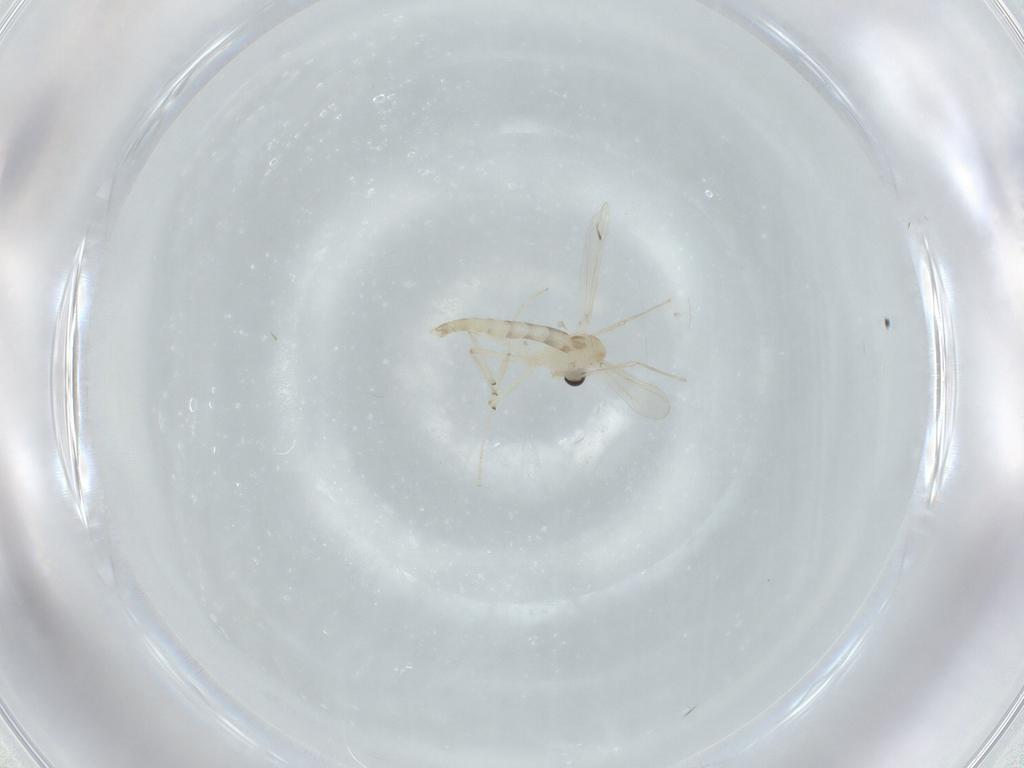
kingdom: Animalia
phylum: Arthropoda
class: Insecta
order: Diptera
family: Chironomidae
